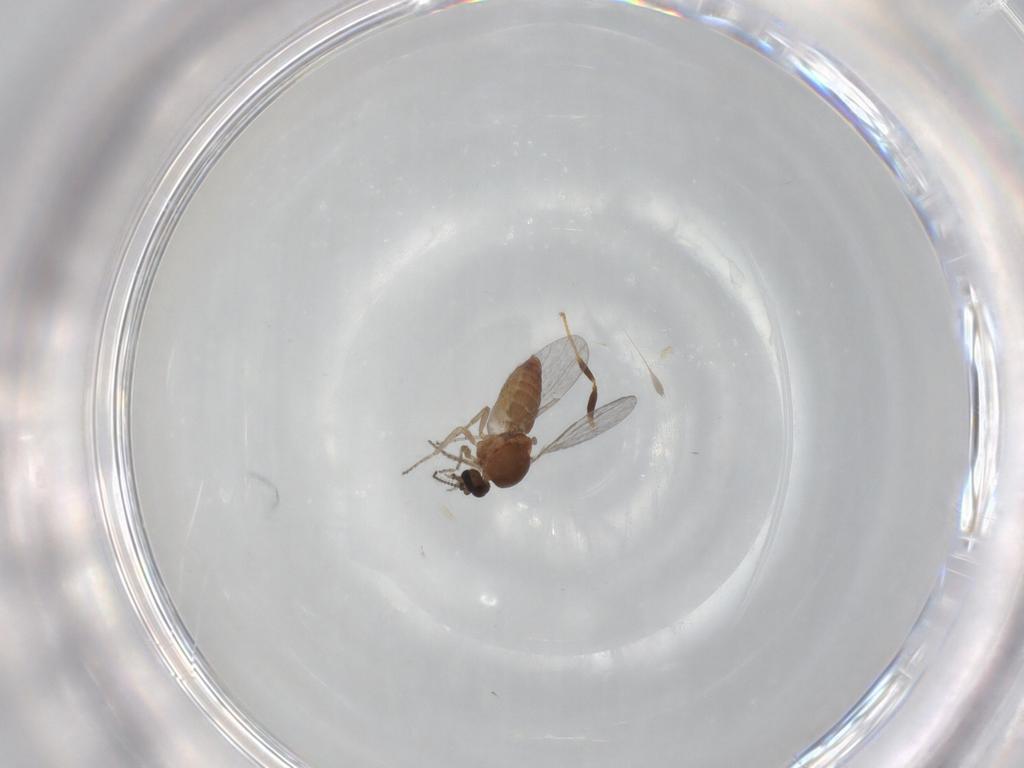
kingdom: Animalia
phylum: Arthropoda
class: Insecta
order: Diptera
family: Ceratopogonidae
